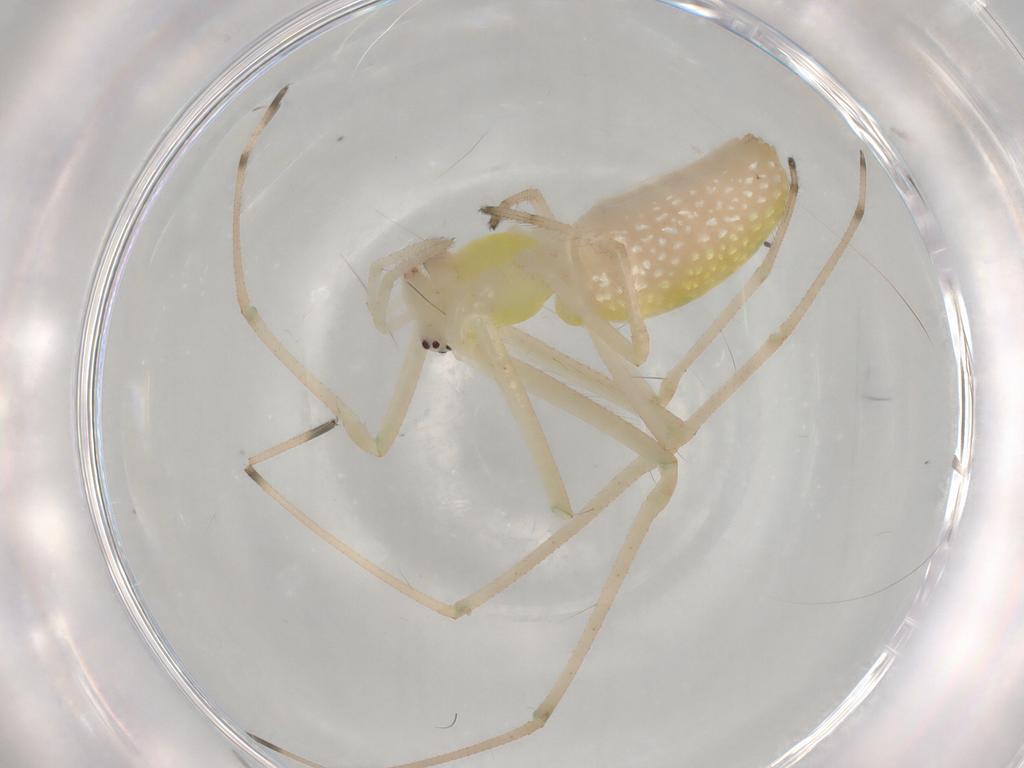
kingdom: Animalia
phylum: Arthropoda
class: Arachnida
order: Araneae
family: Tetragnathidae
